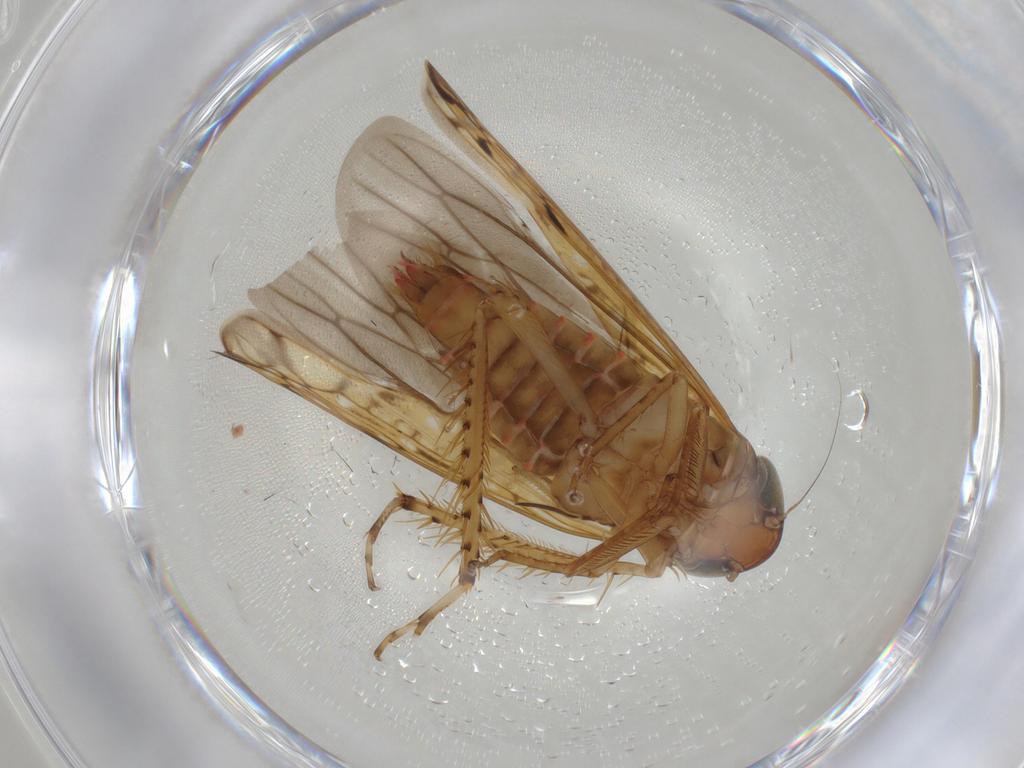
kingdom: Animalia
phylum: Arthropoda
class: Insecta
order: Hemiptera
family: Cicadellidae
